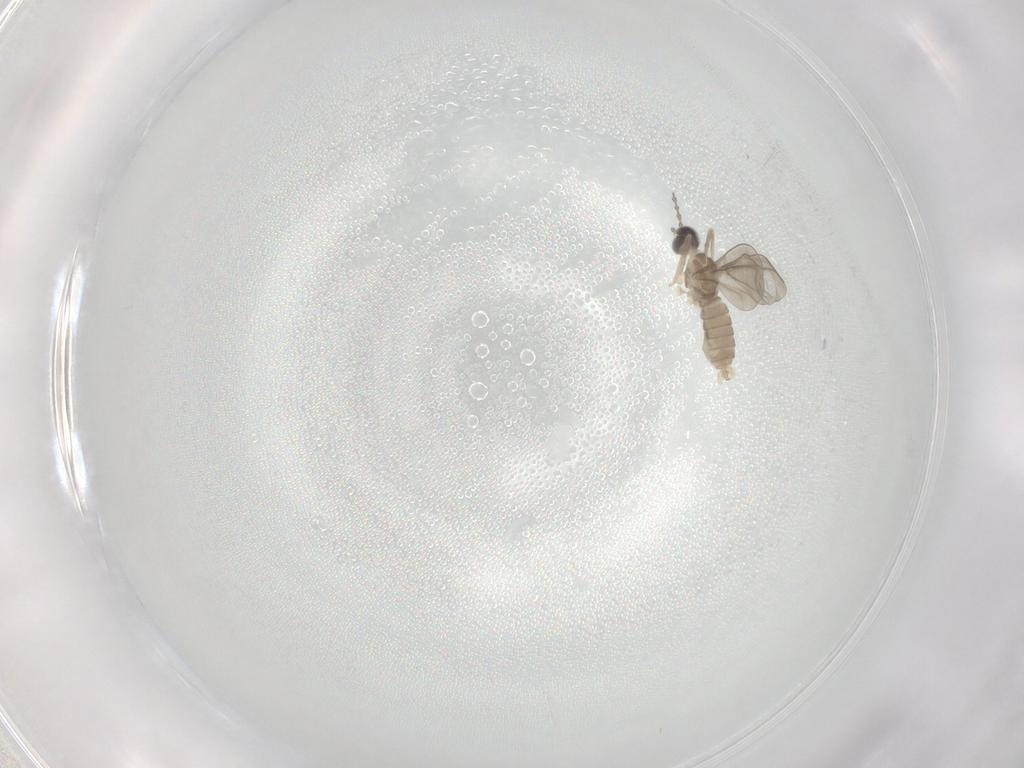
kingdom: Animalia
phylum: Arthropoda
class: Insecta
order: Diptera
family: Cecidomyiidae
